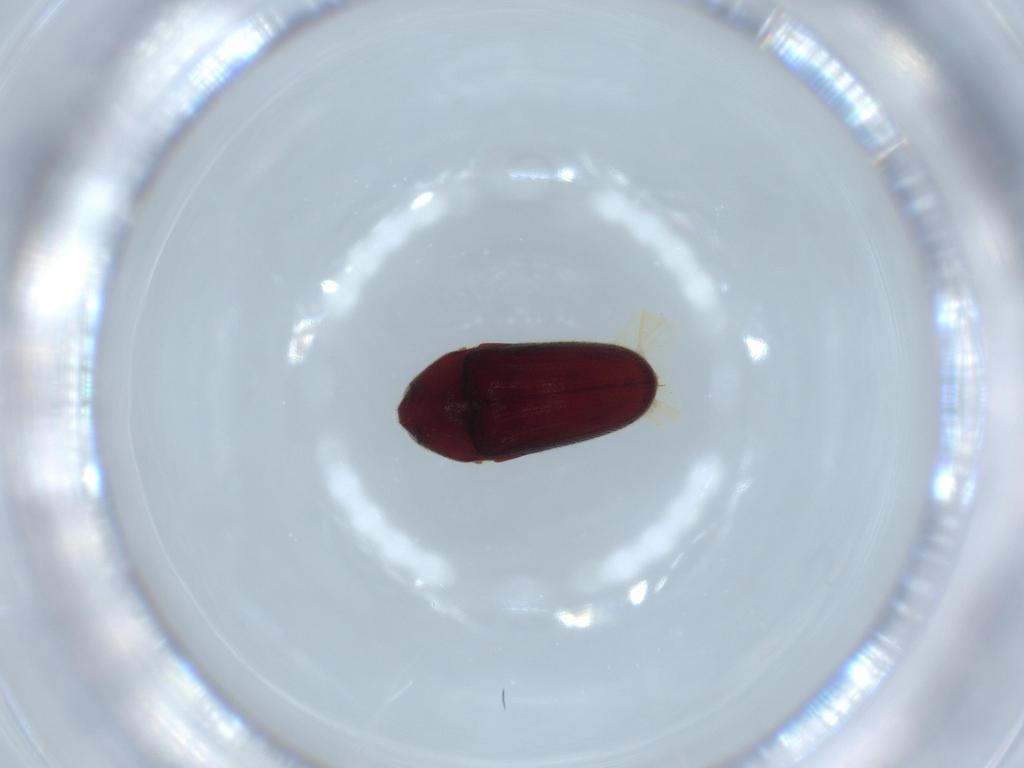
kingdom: Animalia
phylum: Arthropoda
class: Insecta
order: Coleoptera
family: Throscidae
